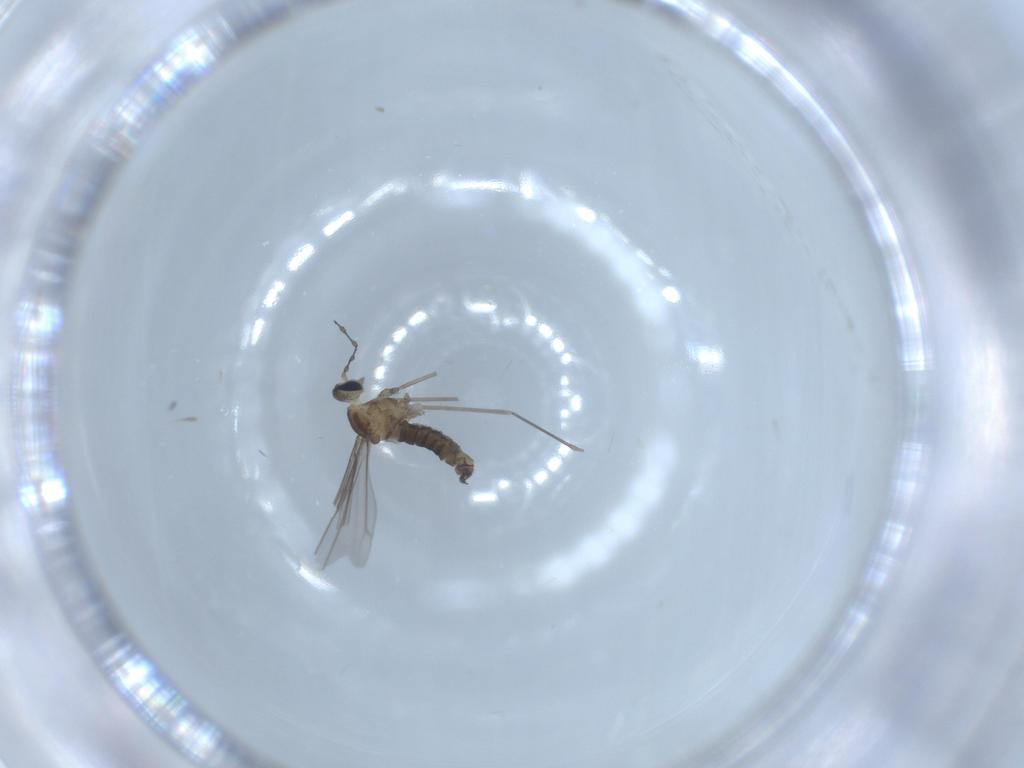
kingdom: Animalia
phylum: Arthropoda
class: Insecta
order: Diptera
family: Cecidomyiidae
